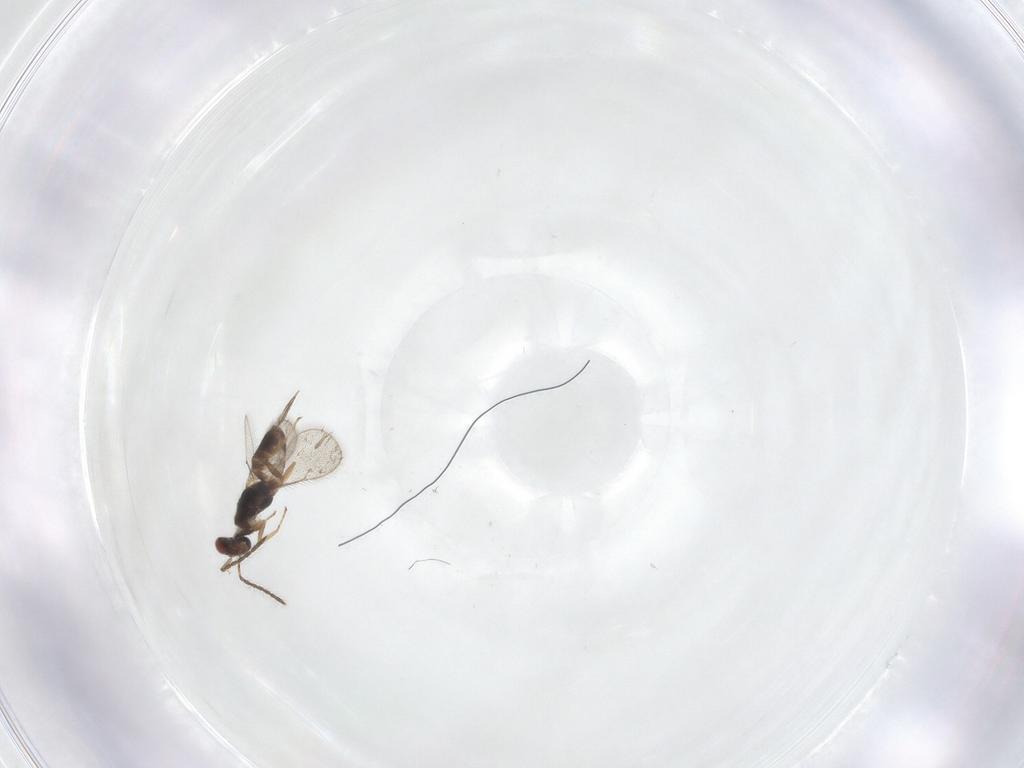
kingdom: Animalia
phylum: Arthropoda
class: Insecta
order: Hymenoptera
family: Eulophidae
